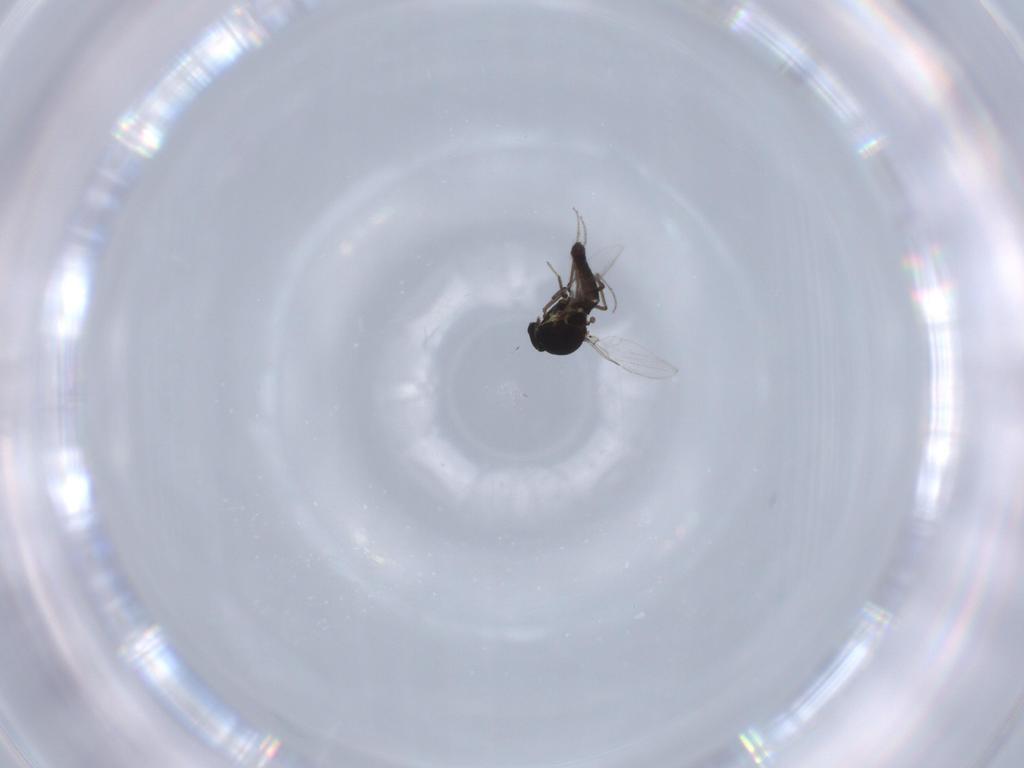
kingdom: Animalia
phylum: Arthropoda
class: Insecta
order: Diptera
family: Ceratopogonidae
